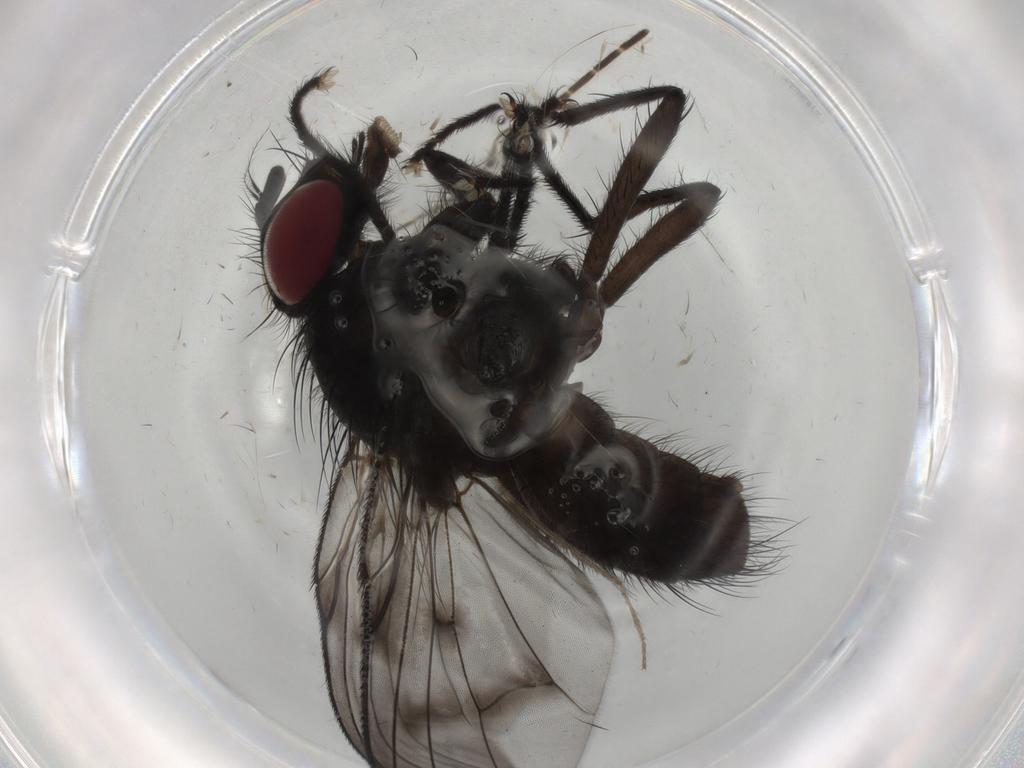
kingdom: Animalia
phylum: Arthropoda
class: Insecta
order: Diptera
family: Muscidae
